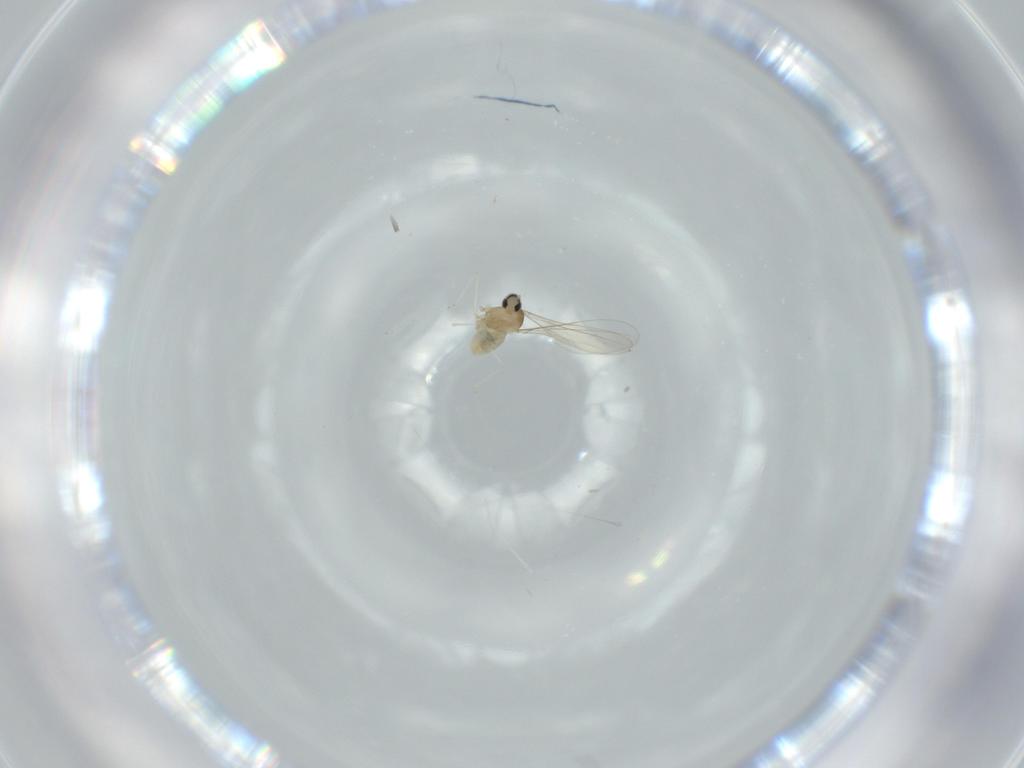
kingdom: Animalia
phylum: Arthropoda
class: Insecta
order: Diptera
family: Cecidomyiidae
